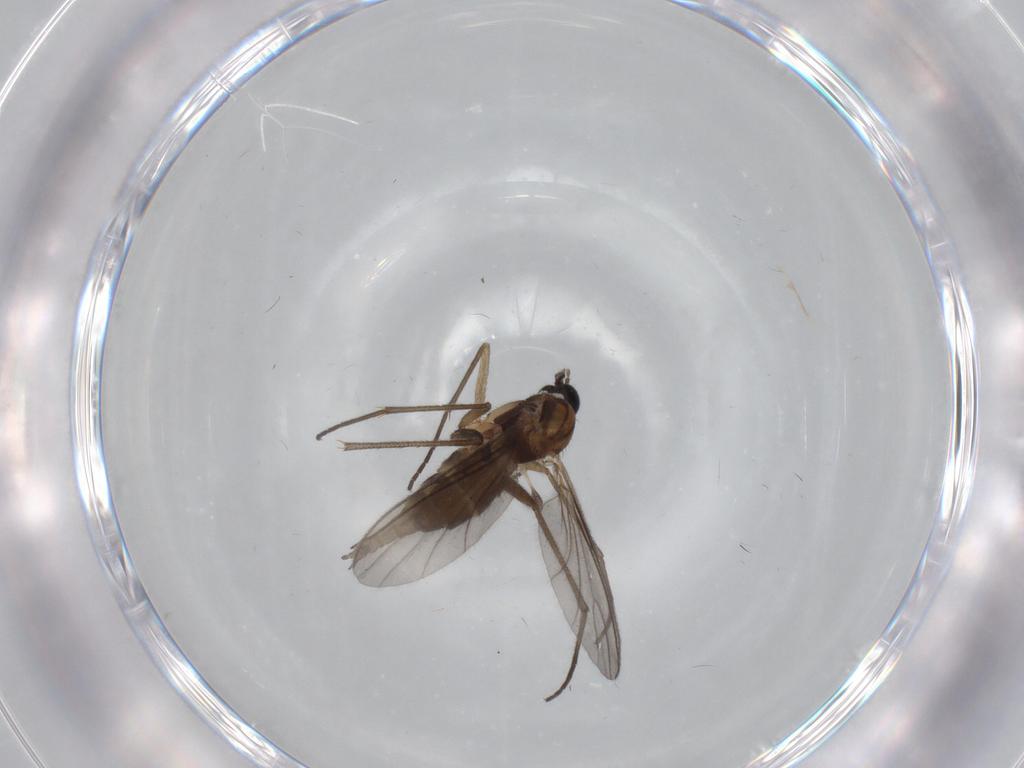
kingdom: Animalia
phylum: Arthropoda
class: Insecta
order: Diptera
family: Sciaridae
